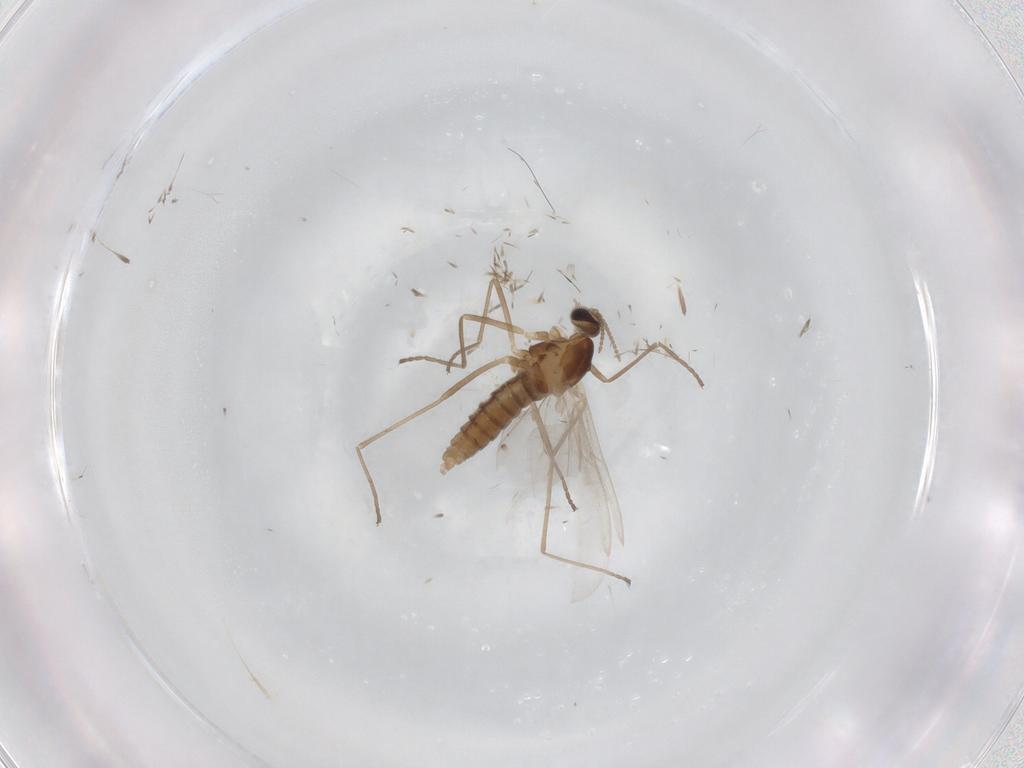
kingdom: Animalia
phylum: Arthropoda
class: Insecta
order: Diptera
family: Cecidomyiidae
